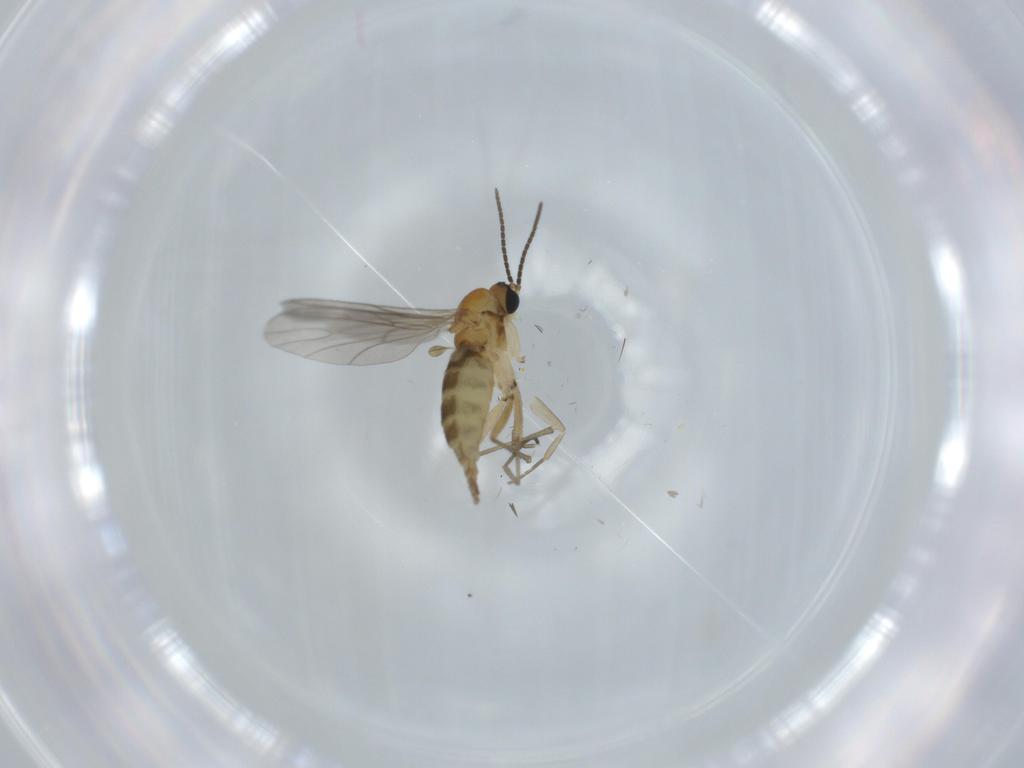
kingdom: Animalia
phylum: Arthropoda
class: Insecta
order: Diptera
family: Phoridae
